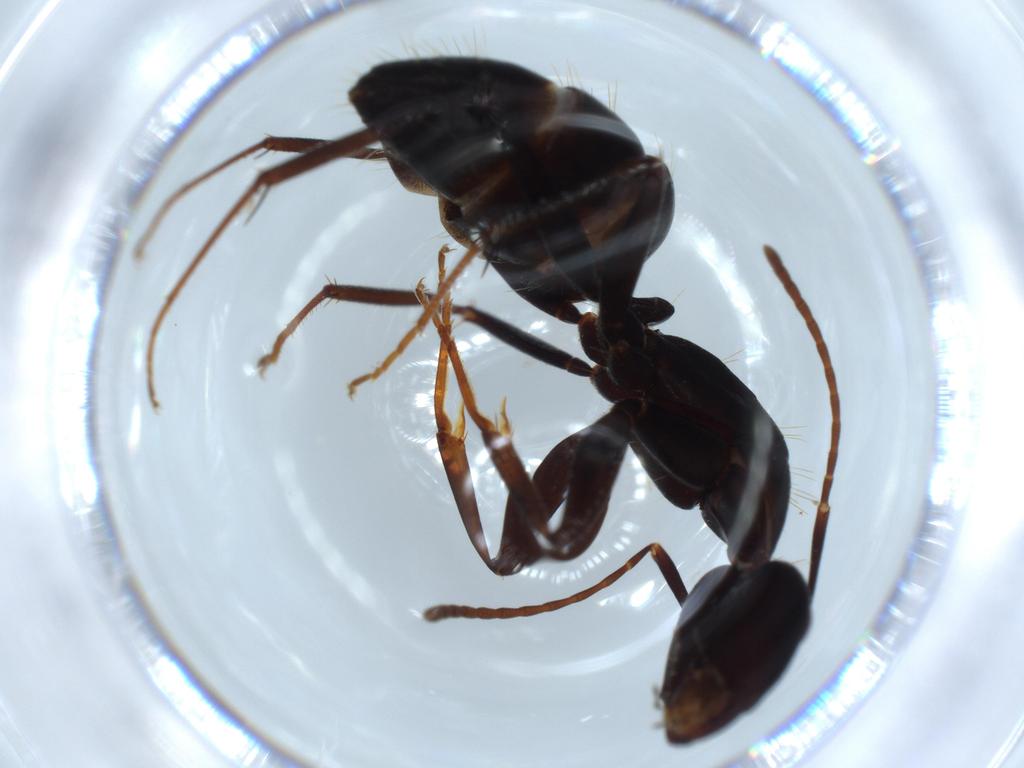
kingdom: Animalia
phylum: Arthropoda
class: Insecta
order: Hymenoptera
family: Formicidae
